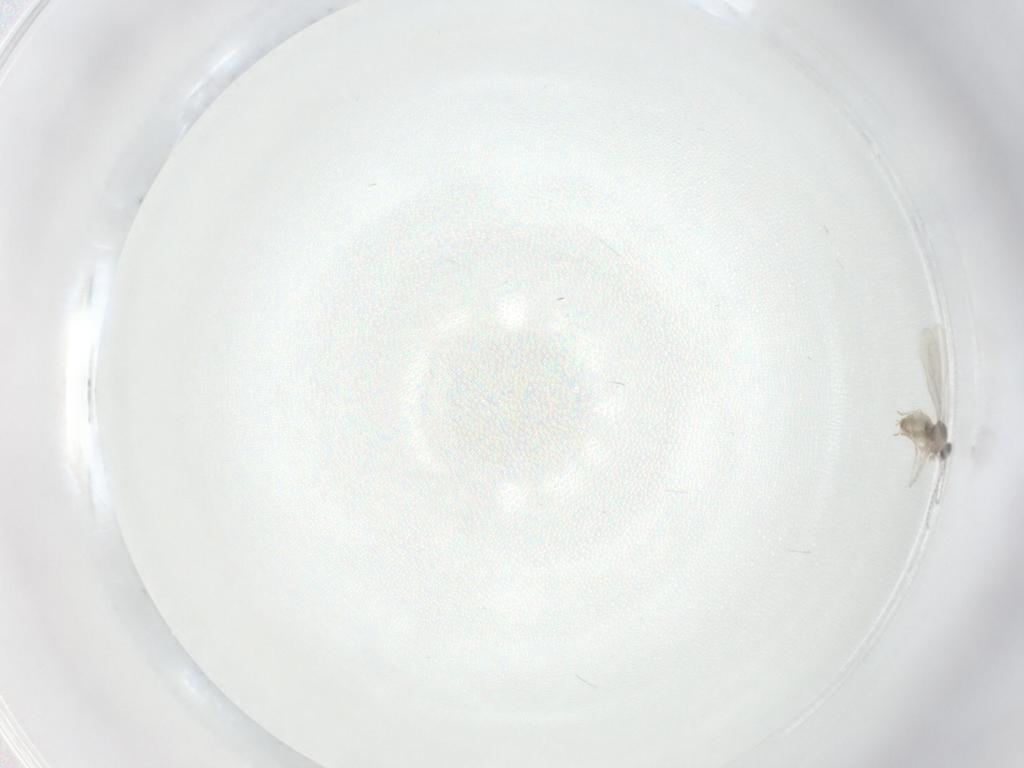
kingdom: Animalia
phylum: Arthropoda
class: Insecta
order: Diptera
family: Cecidomyiidae
